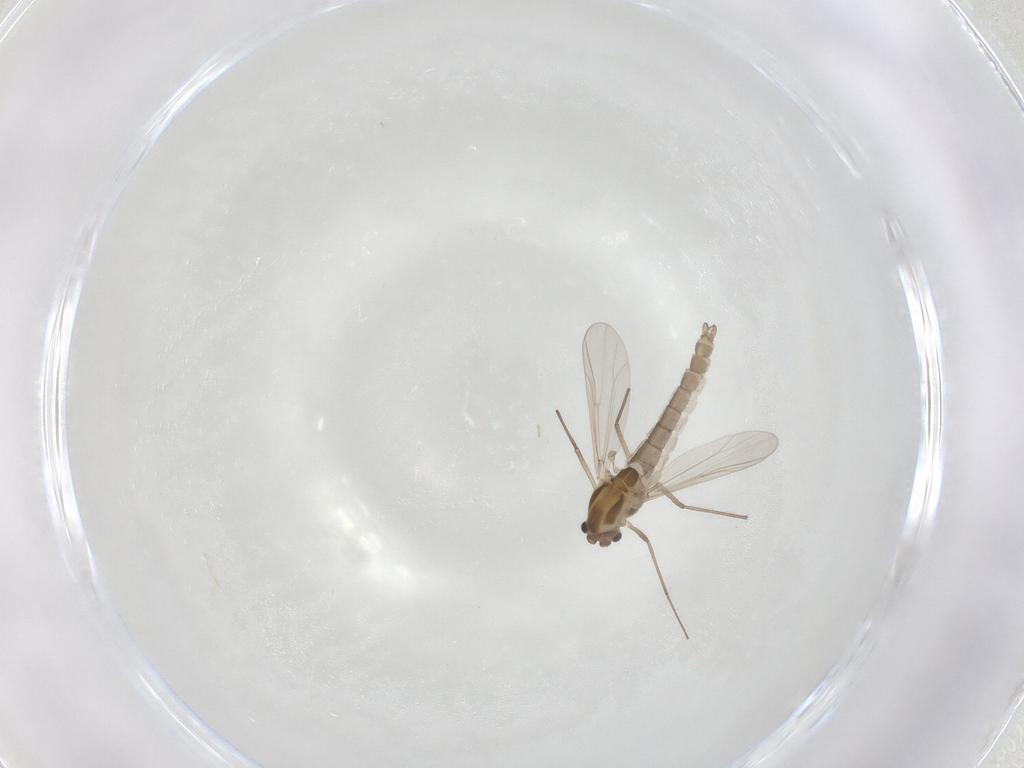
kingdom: Animalia
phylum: Arthropoda
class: Insecta
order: Diptera
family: Chironomidae
